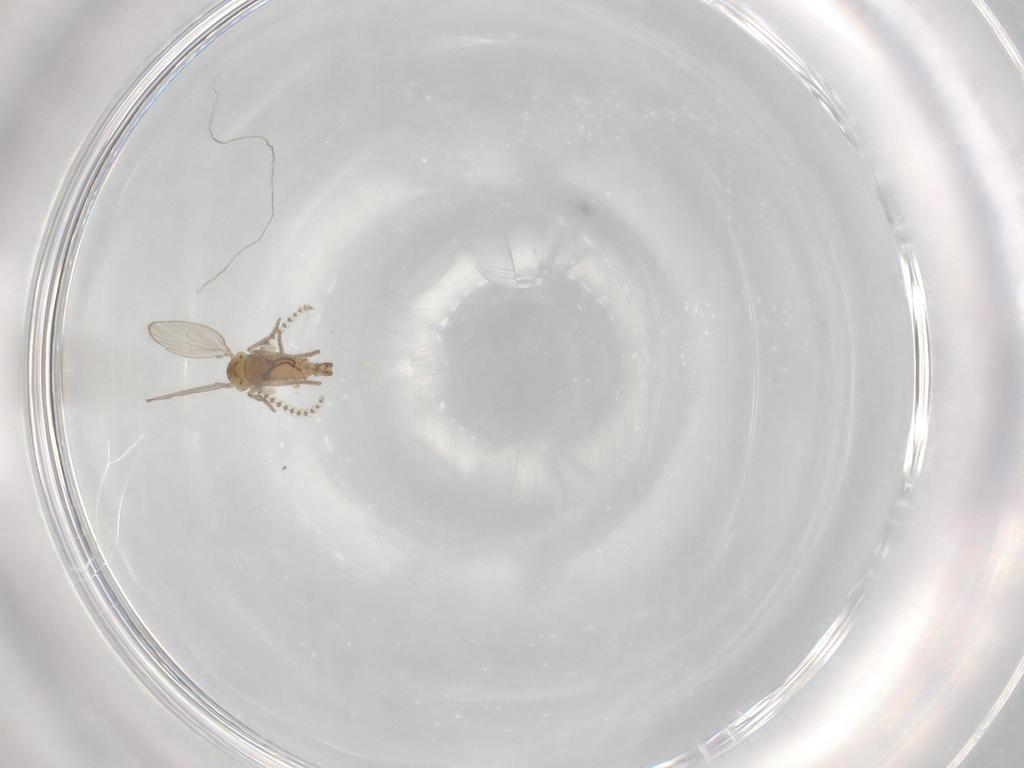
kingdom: Animalia
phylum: Arthropoda
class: Insecta
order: Diptera
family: Psychodidae
